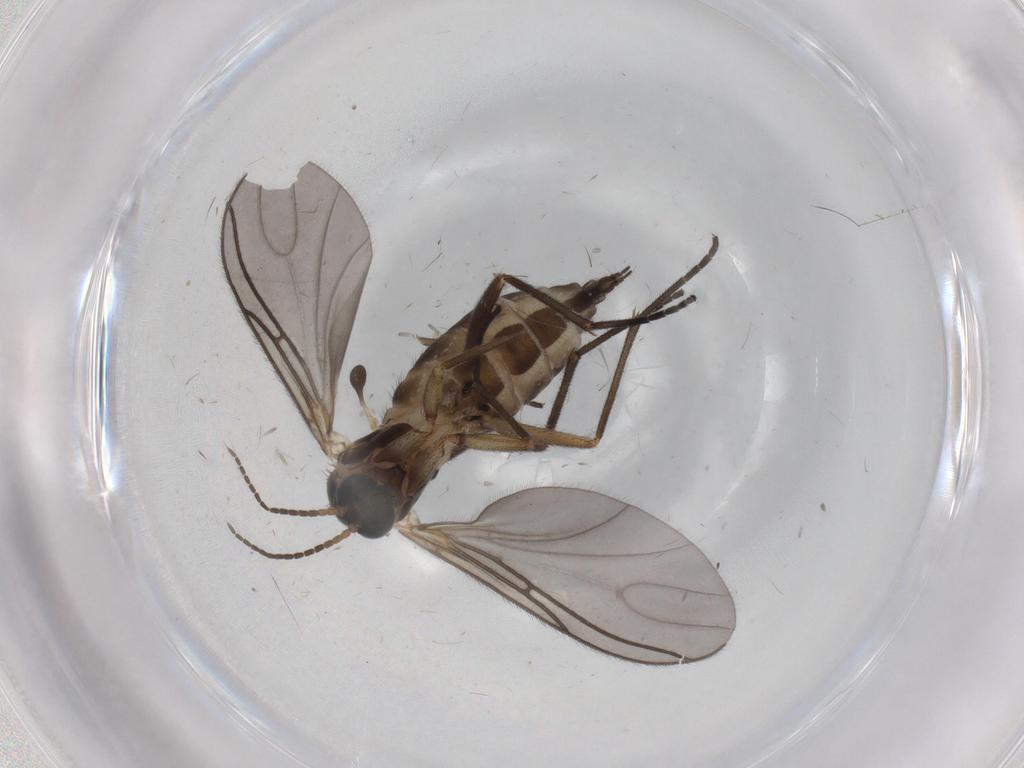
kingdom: Animalia
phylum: Arthropoda
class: Insecta
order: Diptera
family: Sciaridae
